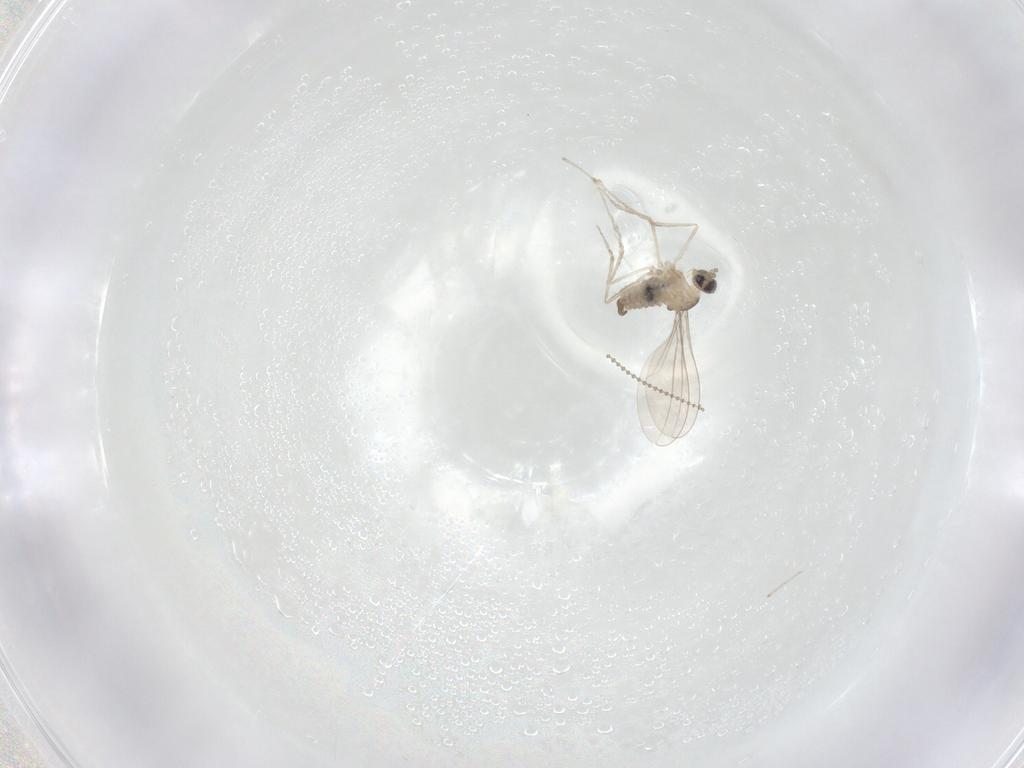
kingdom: Animalia
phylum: Arthropoda
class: Insecta
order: Diptera
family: Cecidomyiidae
